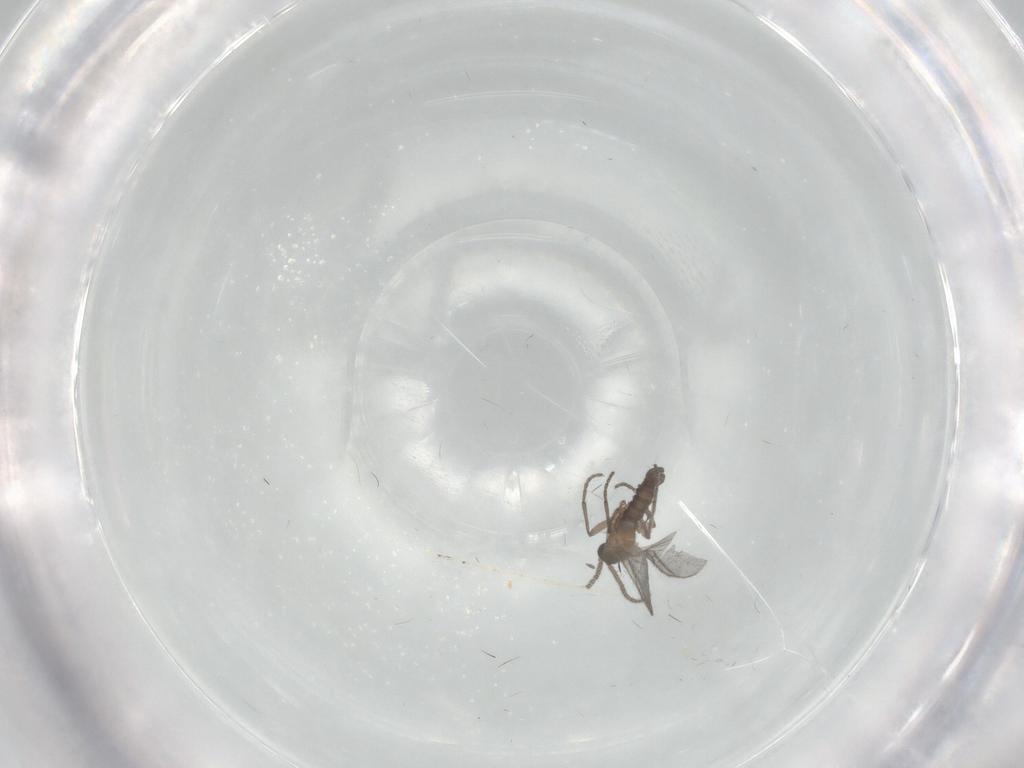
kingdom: Animalia
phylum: Arthropoda
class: Insecta
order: Diptera
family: Sciaridae
